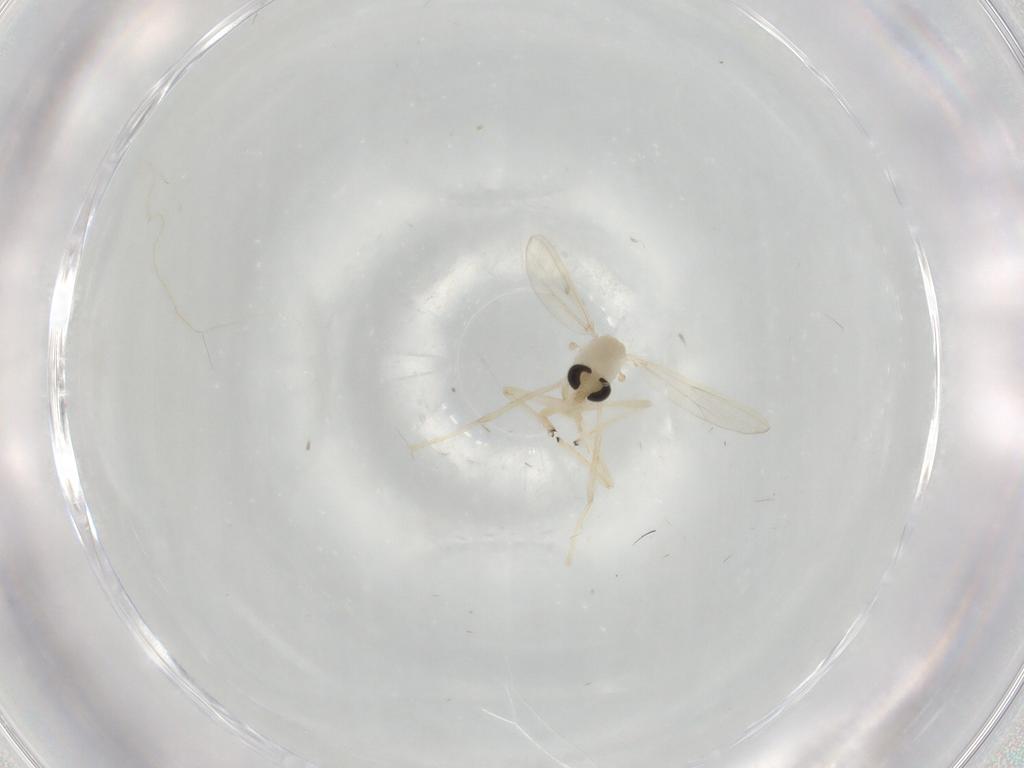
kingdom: Animalia
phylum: Arthropoda
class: Insecta
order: Diptera
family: Chironomidae
